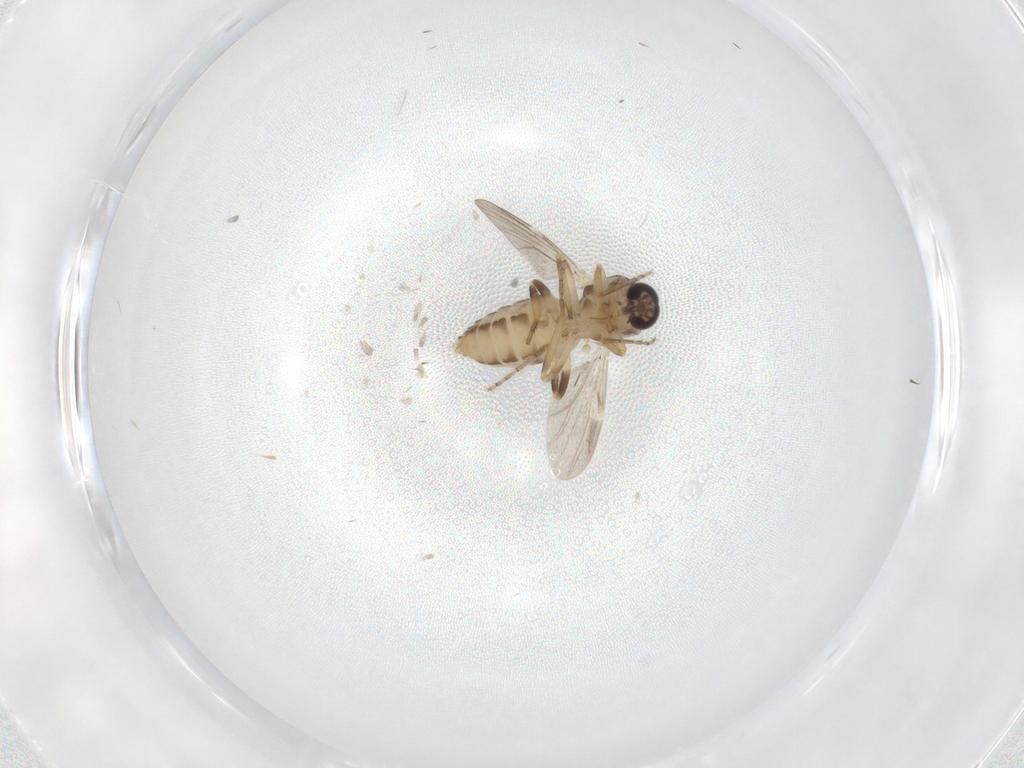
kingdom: Animalia
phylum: Arthropoda
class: Insecta
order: Diptera
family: Ceratopogonidae
